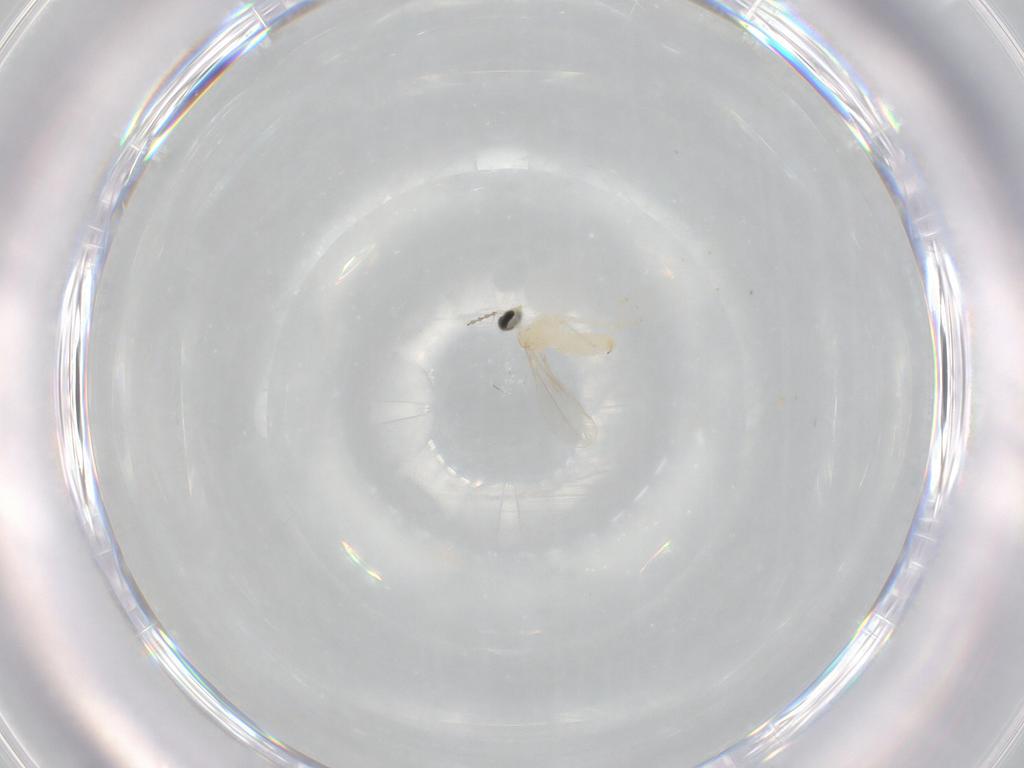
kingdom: Animalia
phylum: Arthropoda
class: Insecta
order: Diptera
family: Cecidomyiidae
